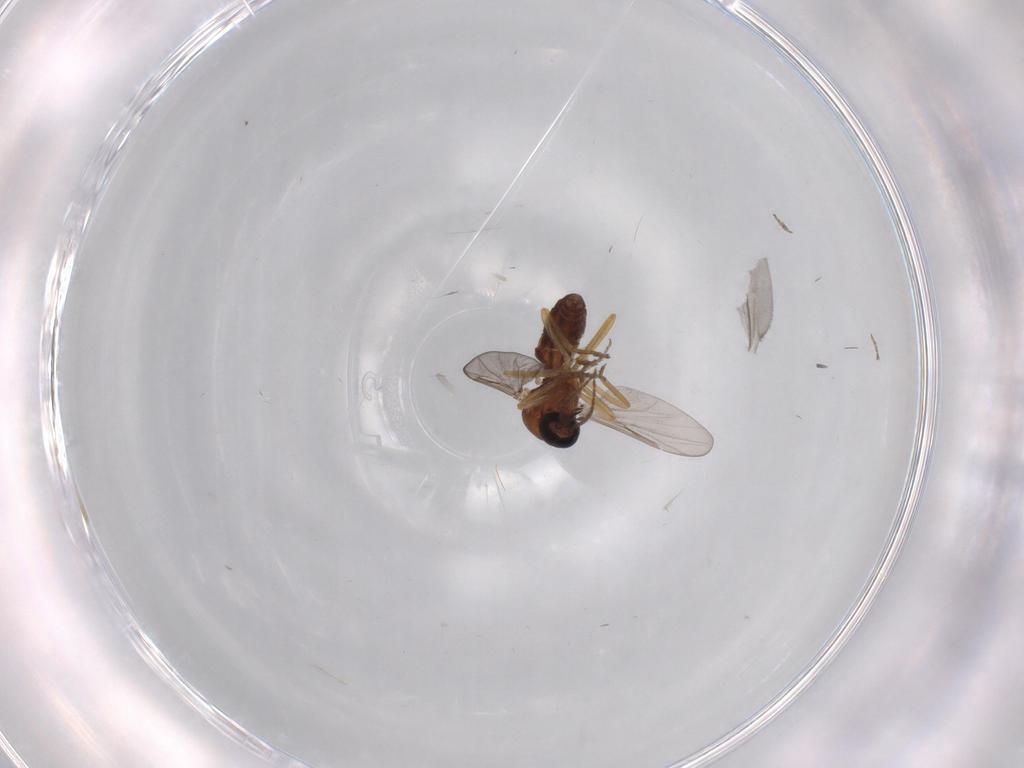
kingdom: Animalia
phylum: Arthropoda
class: Insecta
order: Diptera
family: Ceratopogonidae
